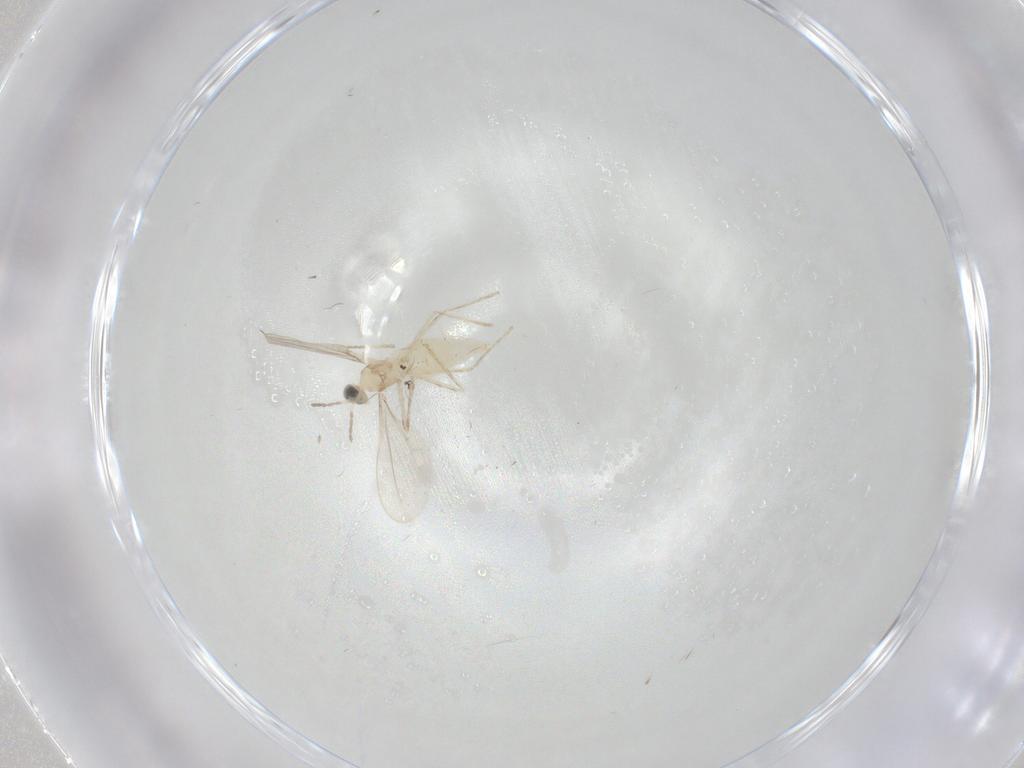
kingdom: Animalia
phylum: Arthropoda
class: Insecta
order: Diptera
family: Cecidomyiidae
